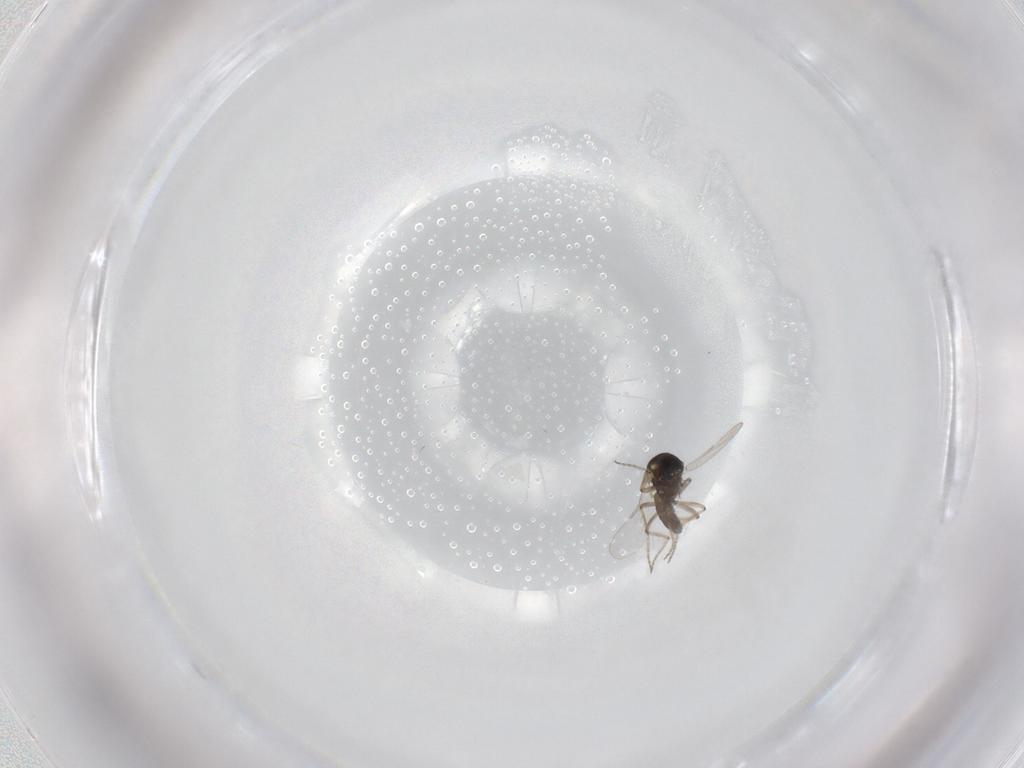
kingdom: Animalia
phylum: Arthropoda
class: Insecta
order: Diptera
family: Ceratopogonidae
